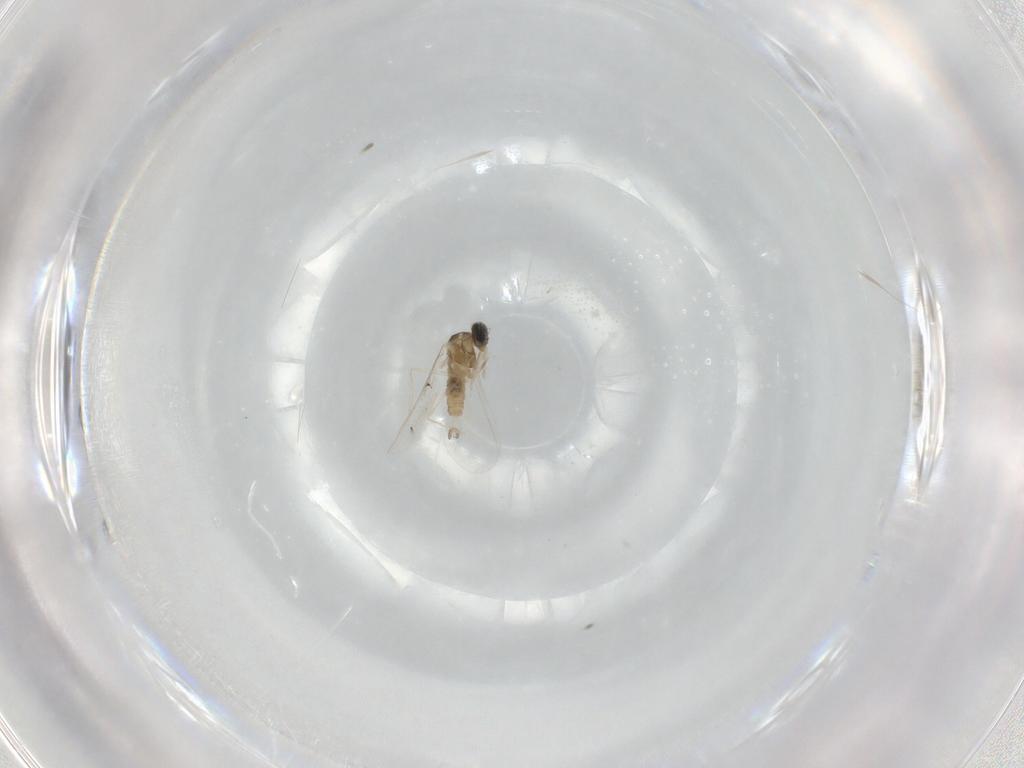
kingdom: Animalia
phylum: Arthropoda
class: Insecta
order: Diptera
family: Cecidomyiidae
